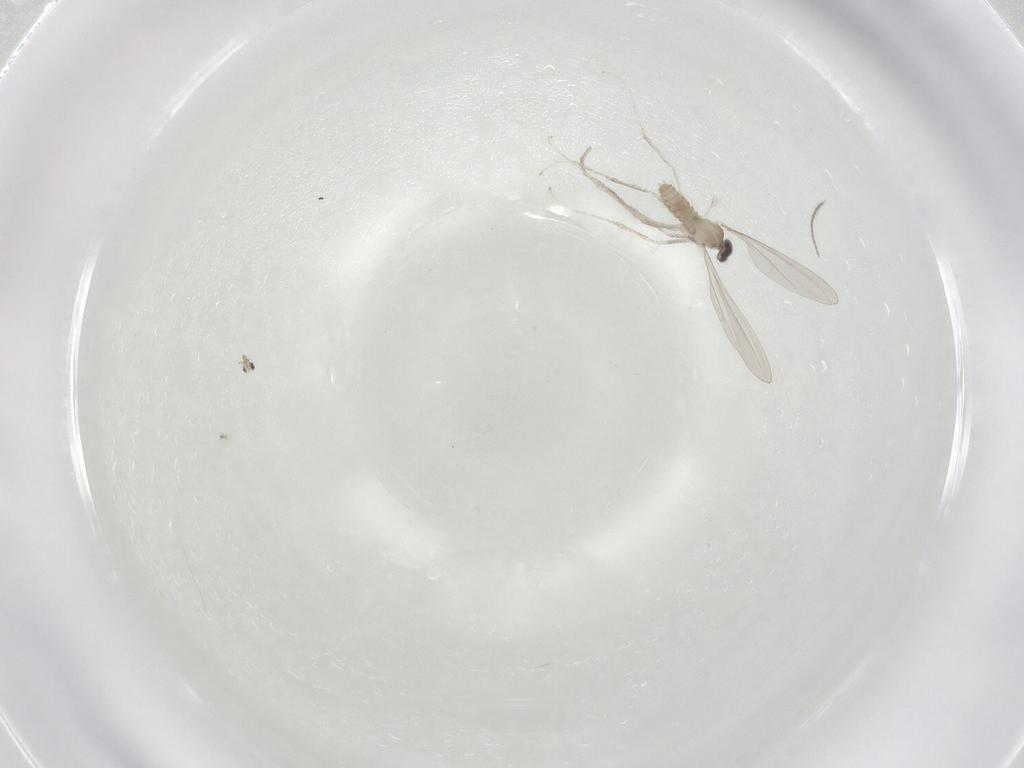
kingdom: Animalia
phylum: Arthropoda
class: Insecta
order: Diptera
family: Cecidomyiidae
